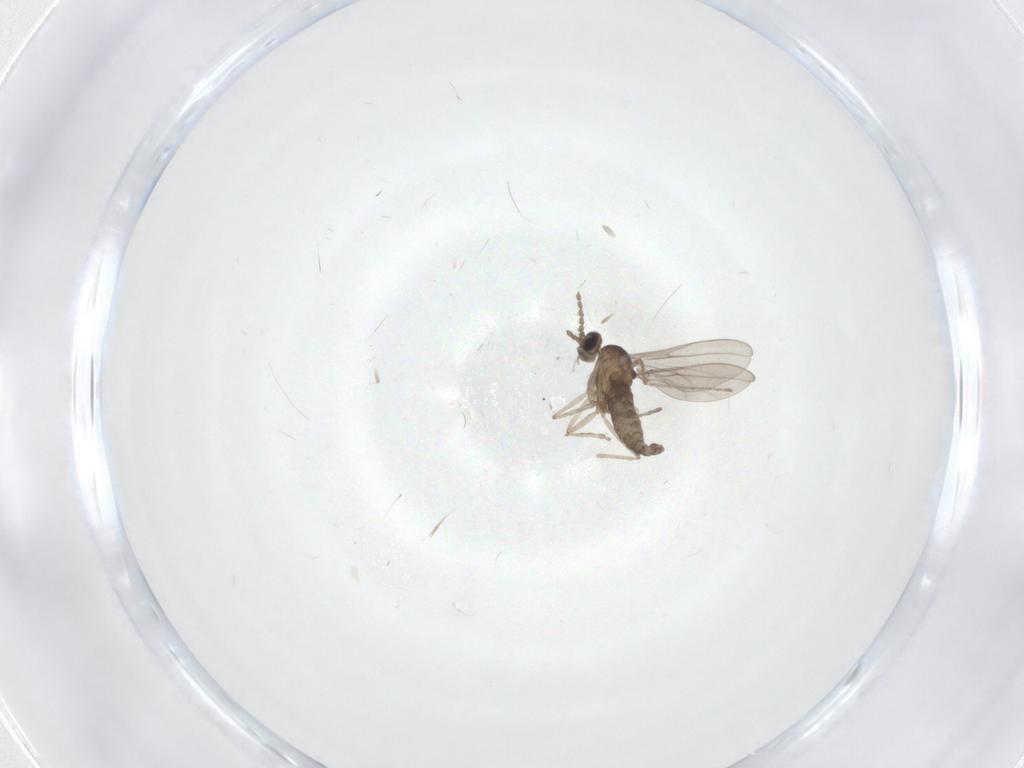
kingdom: Animalia
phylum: Arthropoda
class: Insecta
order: Diptera
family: Cecidomyiidae
